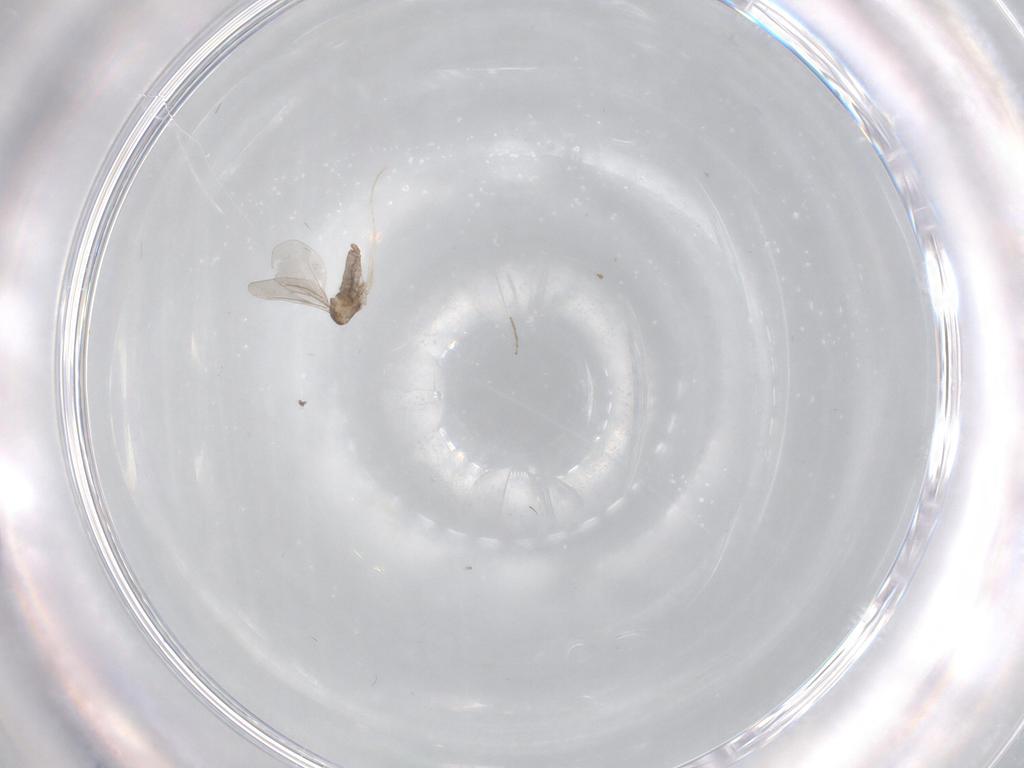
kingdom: Animalia
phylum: Arthropoda
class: Insecta
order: Diptera
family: Cecidomyiidae
